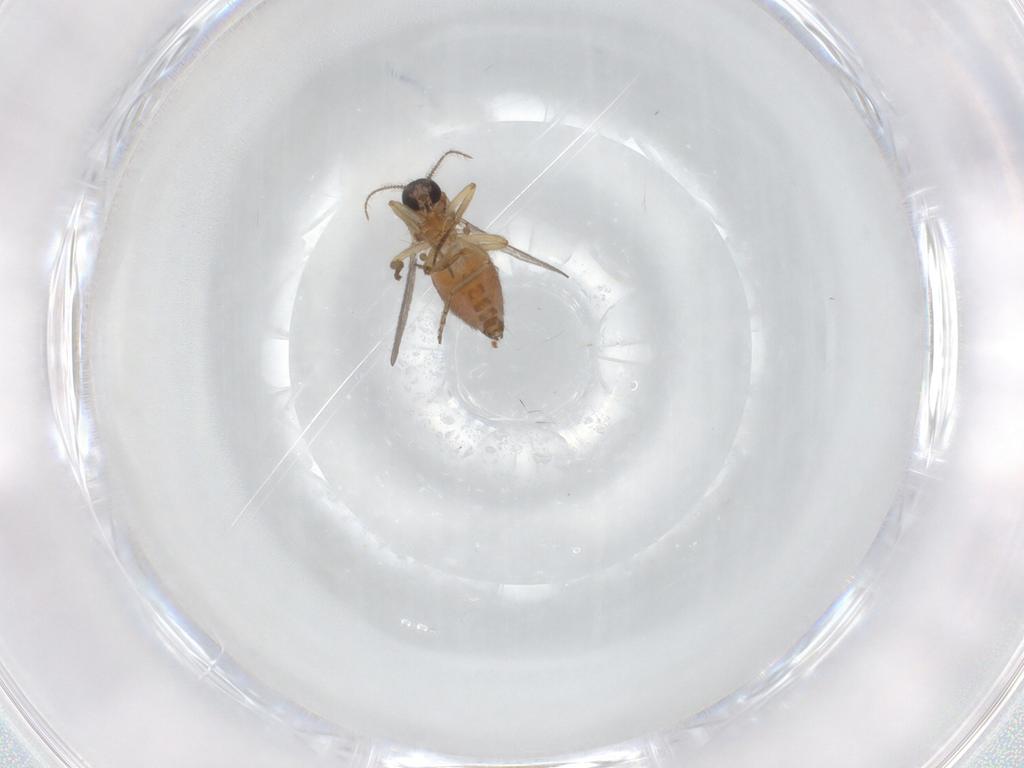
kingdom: Animalia
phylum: Arthropoda
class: Insecta
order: Diptera
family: Ceratopogonidae
